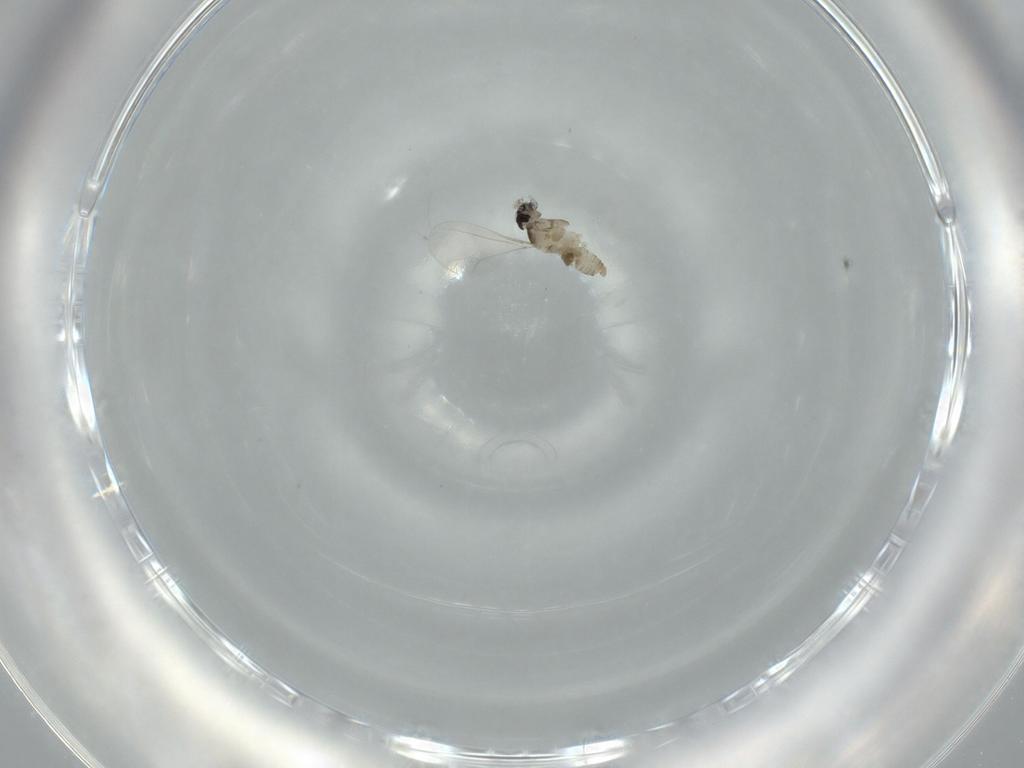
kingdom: Animalia
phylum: Arthropoda
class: Insecta
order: Diptera
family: Cecidomyiidae
